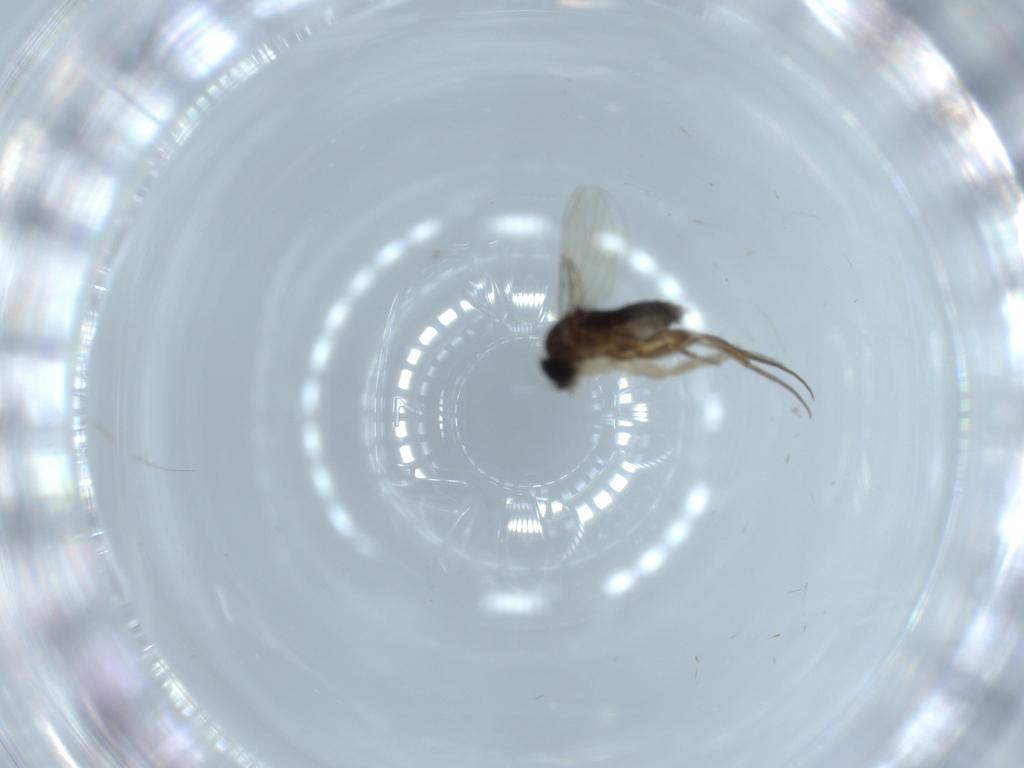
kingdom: Animalia
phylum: Arthropoda
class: Insecta
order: Diptera
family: Phoridae
